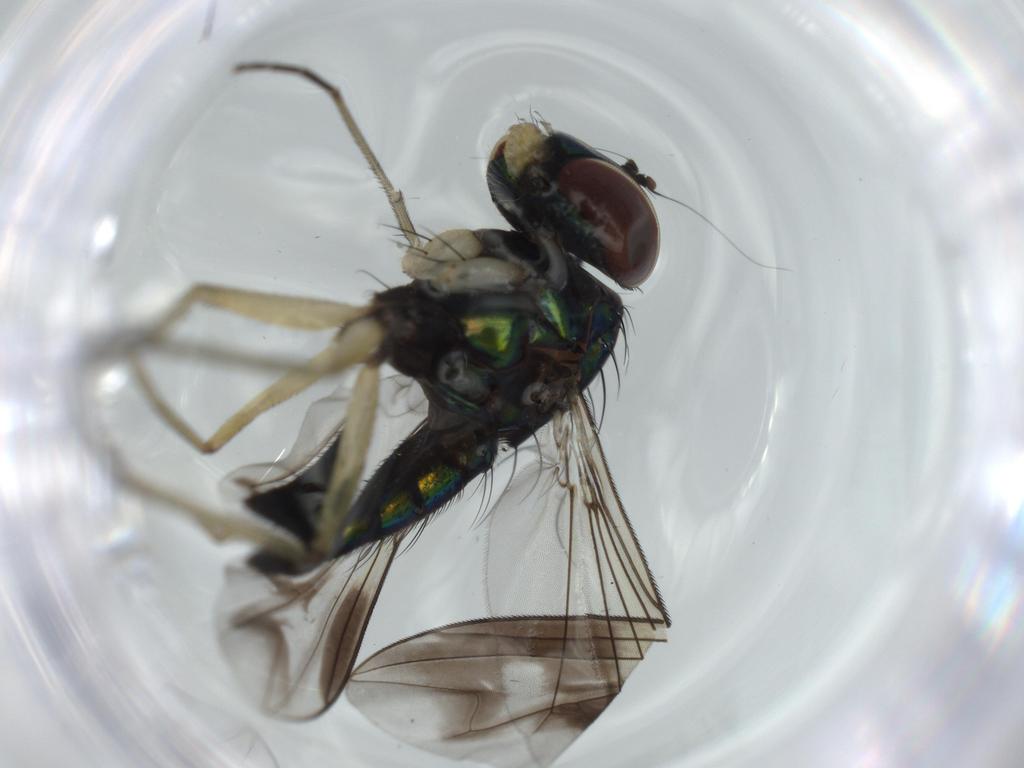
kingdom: Animalia
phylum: Arthropoda
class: Insecta
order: Diptera
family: Dolichopodidae
